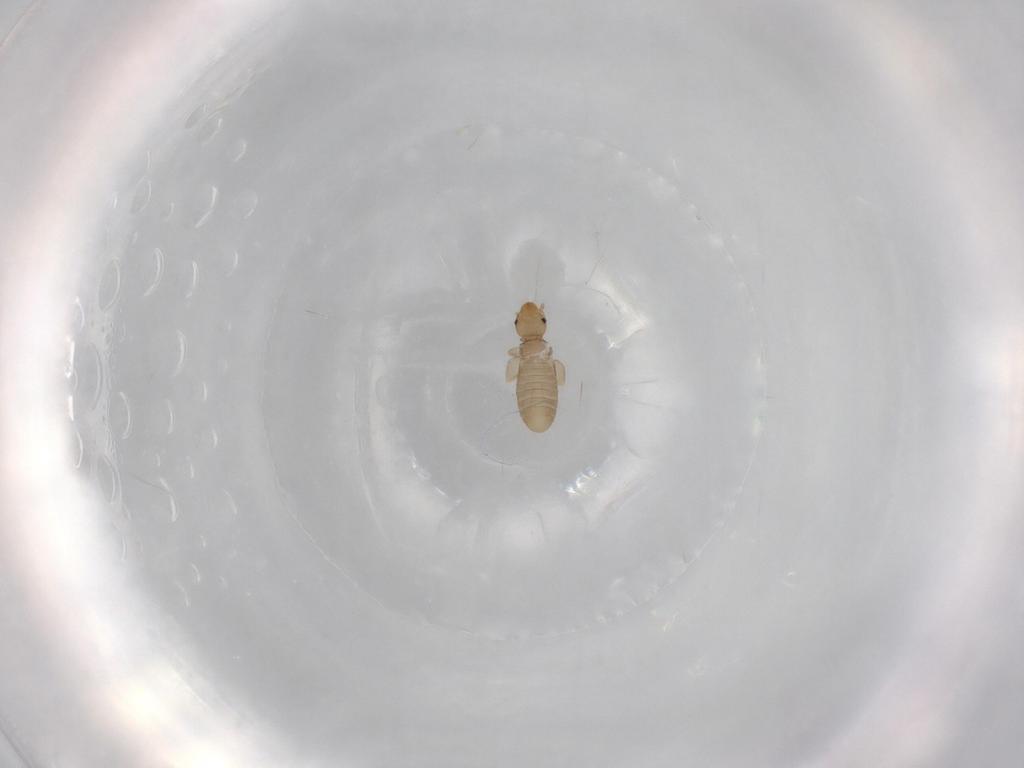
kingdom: Animalia
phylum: Arthropoda
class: Insecta
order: Psocodea
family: Liposcelididae
